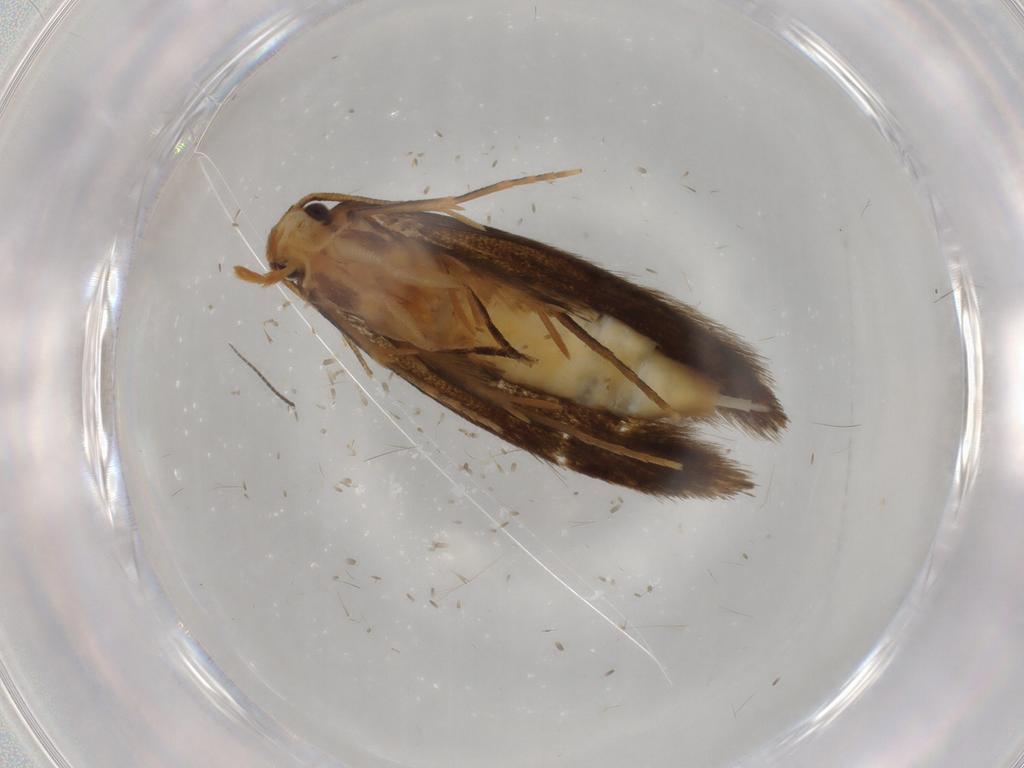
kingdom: Animalia
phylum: Arthropoda
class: Insecta
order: Lepidoptera
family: Tineidae
